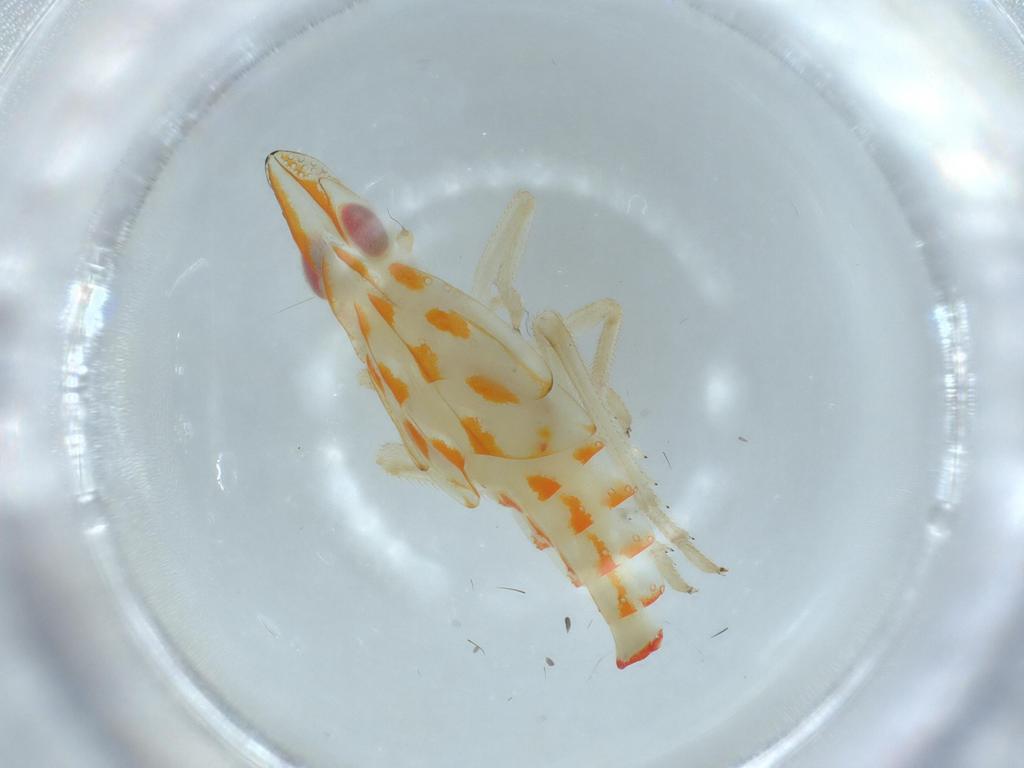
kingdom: Animalia
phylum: Arthropoda
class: Insecta
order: Hemiptera
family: Tropiduchidae
